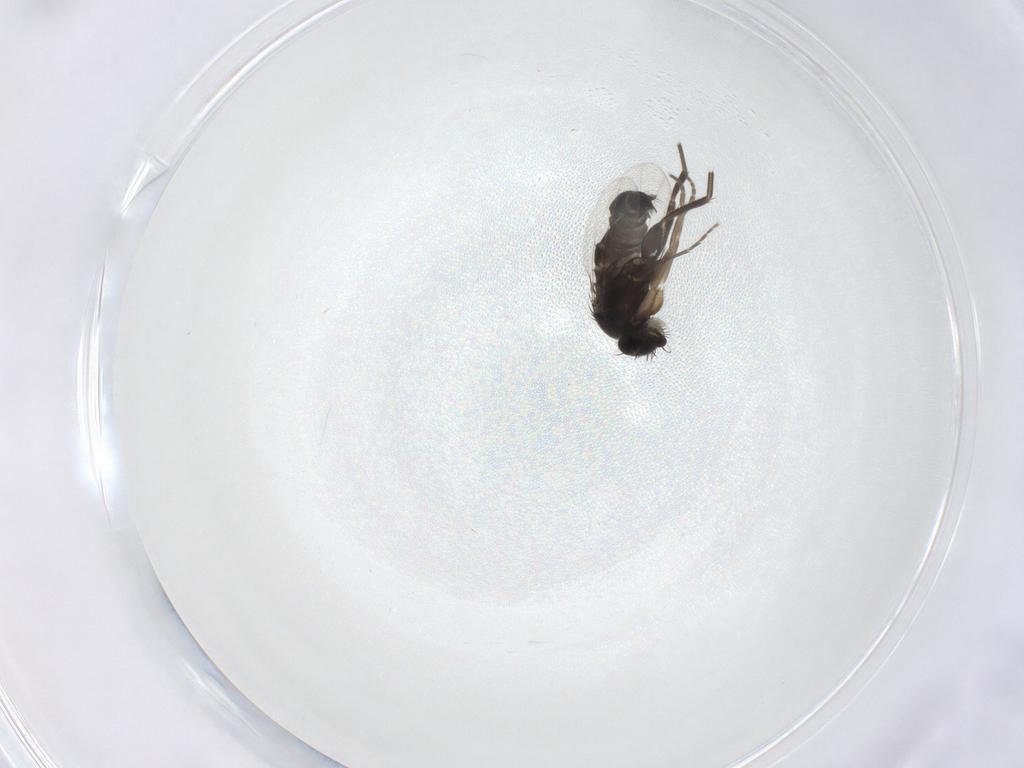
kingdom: Animalia
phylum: Arthropoda
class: Insecta
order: Diptera
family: Phoridae
